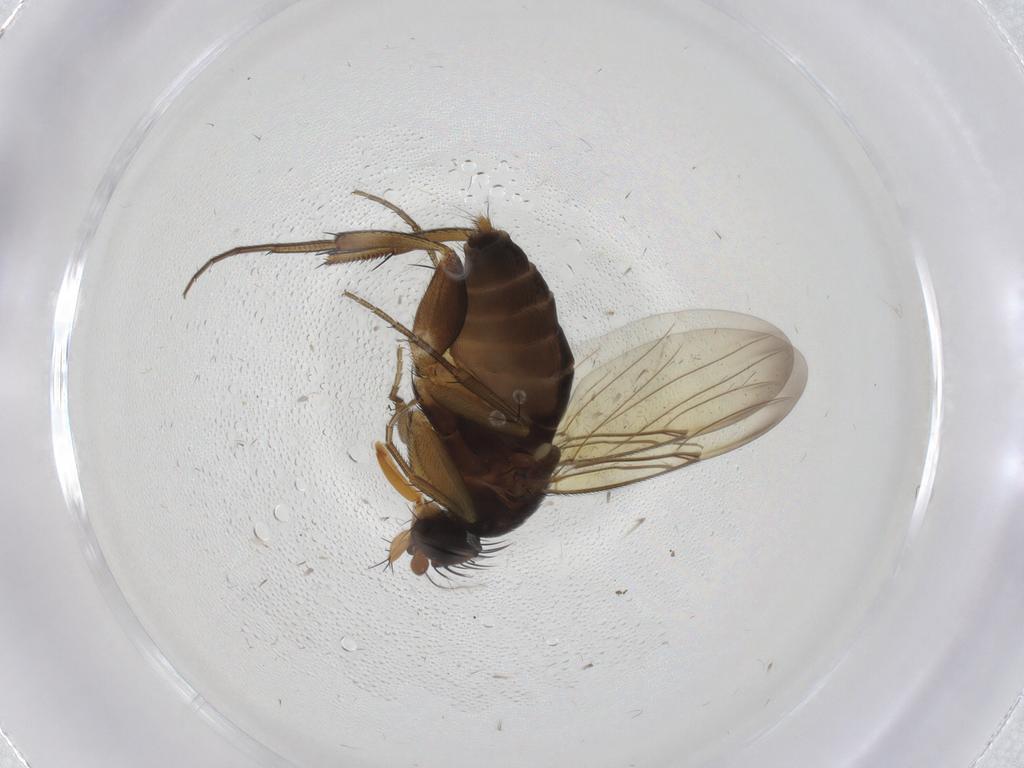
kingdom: Animalia
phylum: Arthropoda
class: Insecta
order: Diptera
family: Phoridae
